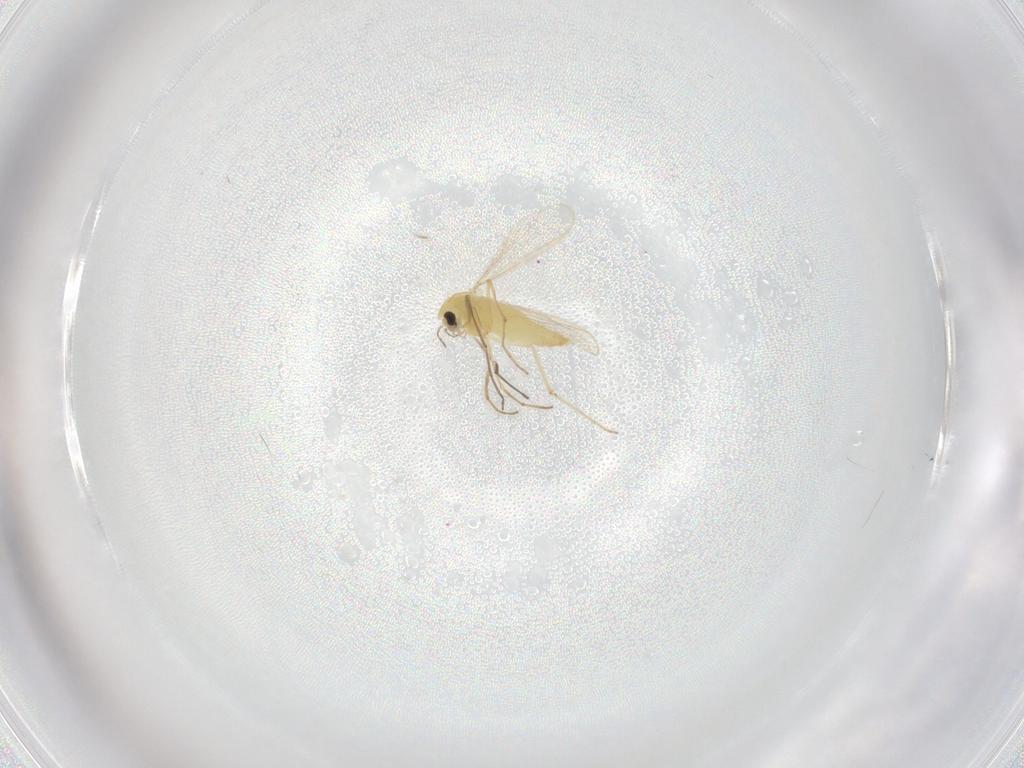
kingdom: Animalia
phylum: Arthropoda
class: Insecta
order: Diptera
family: Chironomidae
